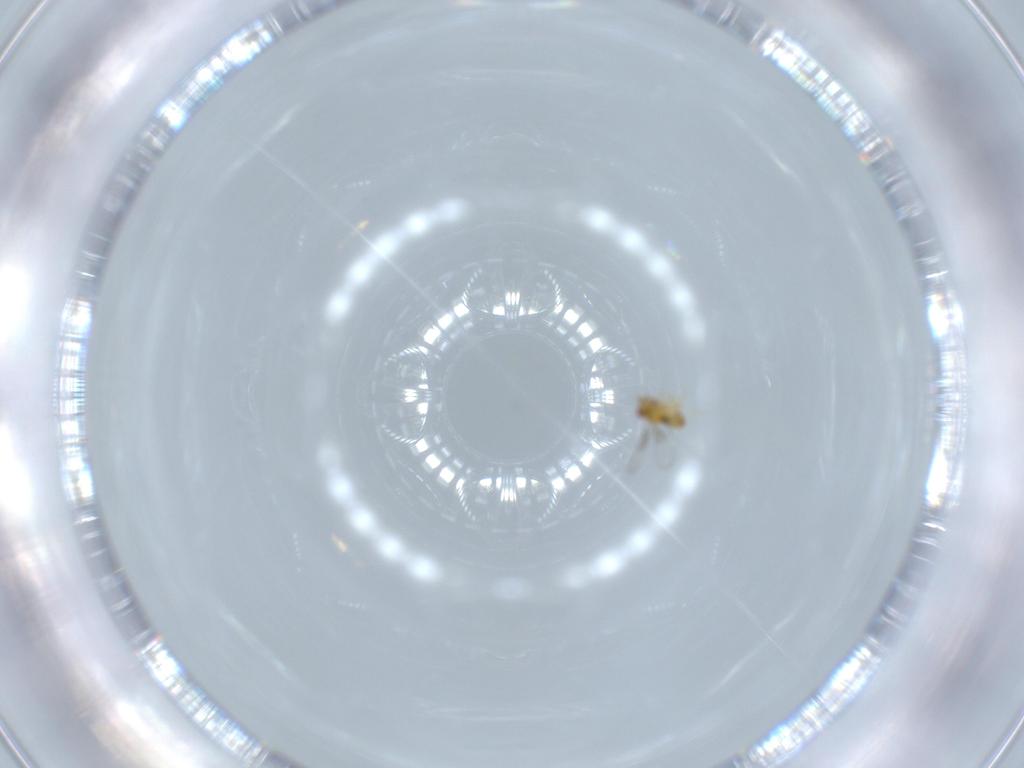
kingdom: Animalia
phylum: Arthropoda
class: Insecta
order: Hymenoptera
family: Trichogrammatidae
